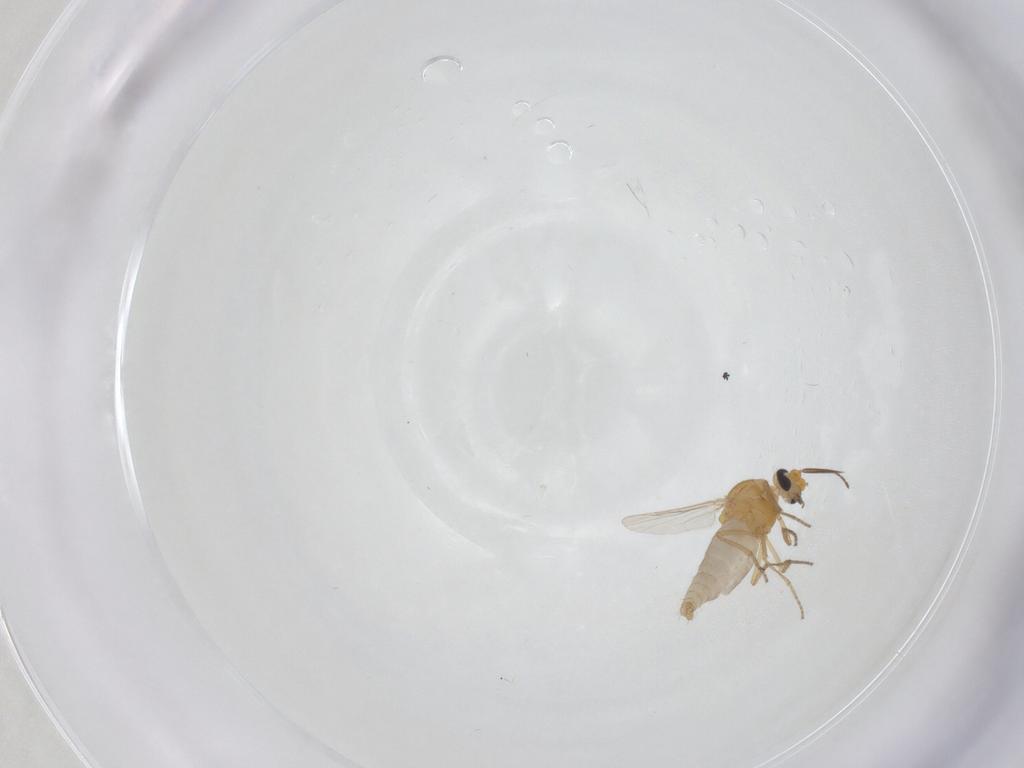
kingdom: Animalia
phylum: Arthropoda
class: Insecta
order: Diptera
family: Ceratopogonidae
